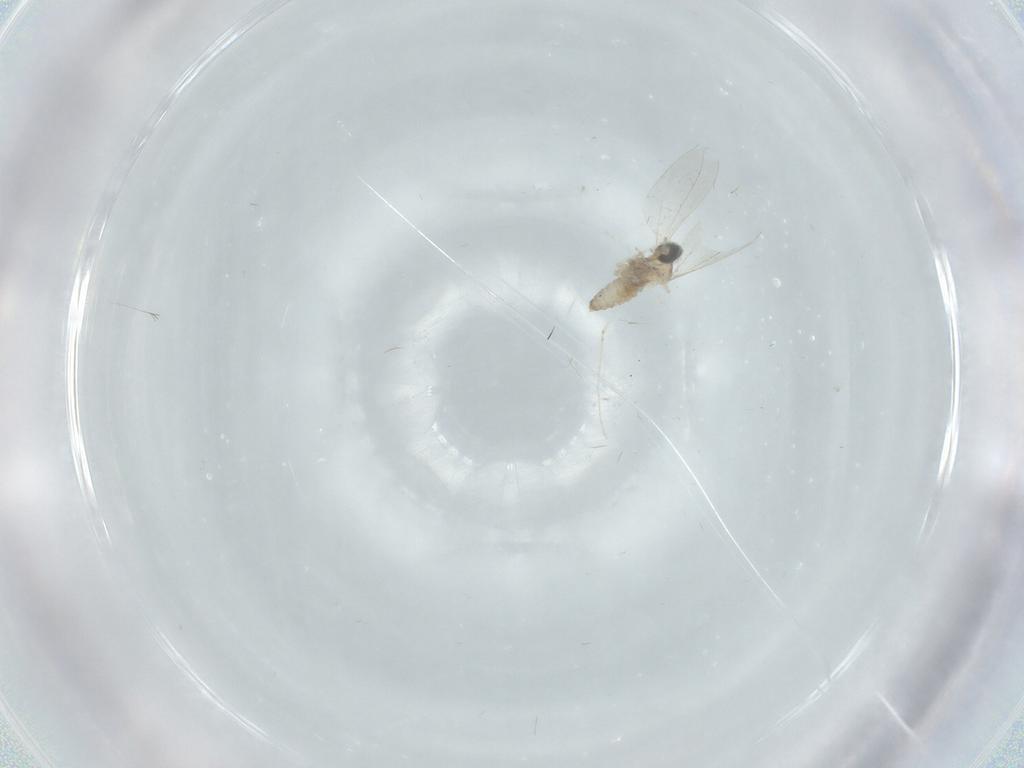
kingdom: Animalia
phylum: Arthropoda
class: Insecta
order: Diptera
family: Cecidomyiidae
